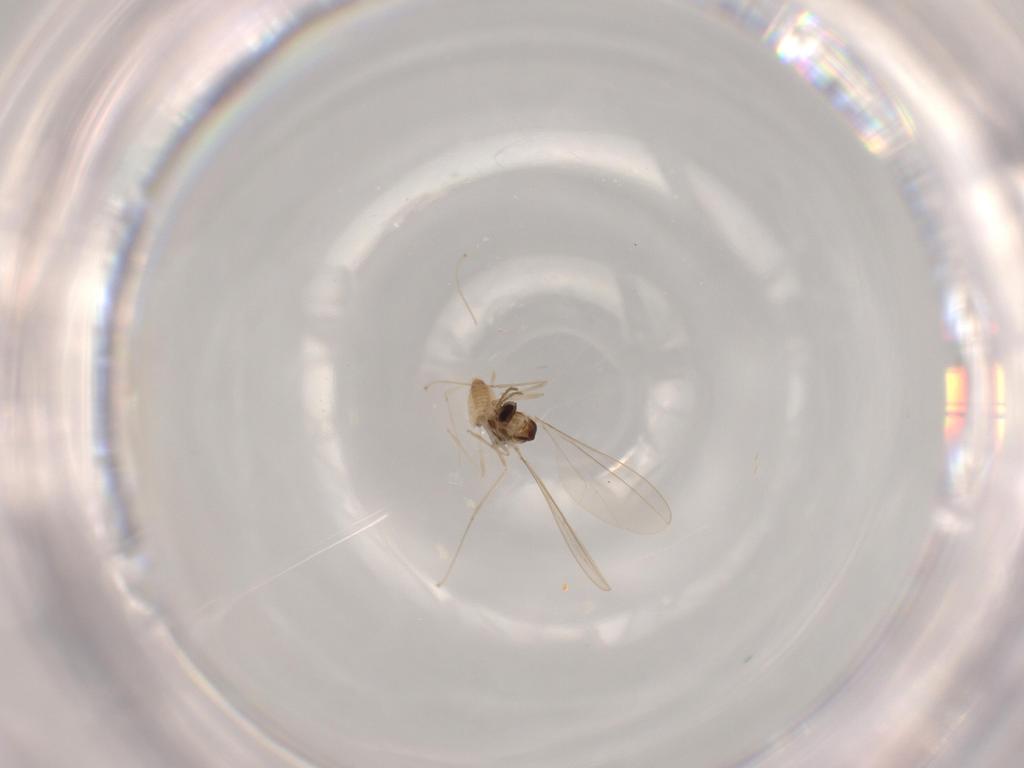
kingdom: Animalia
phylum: Arthropoda
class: Insecta
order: Diptera
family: Cecidomyiidae
